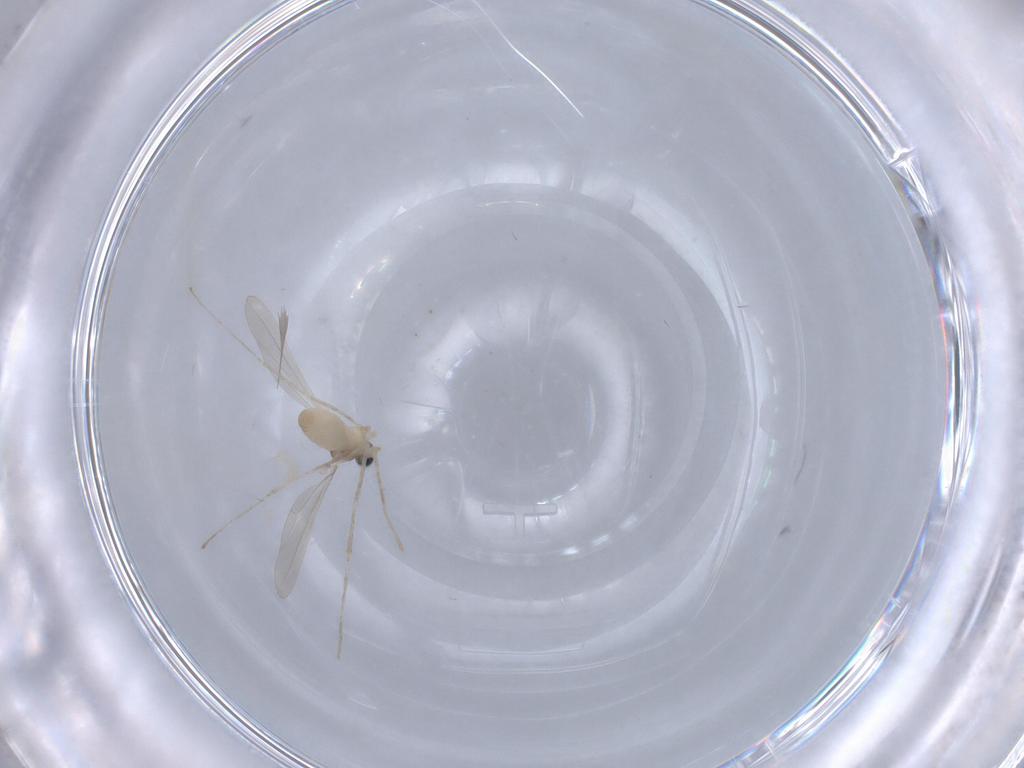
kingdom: Animalia
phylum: Arthropoda
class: Insecta
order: Diptera
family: Cecidomyiidae
